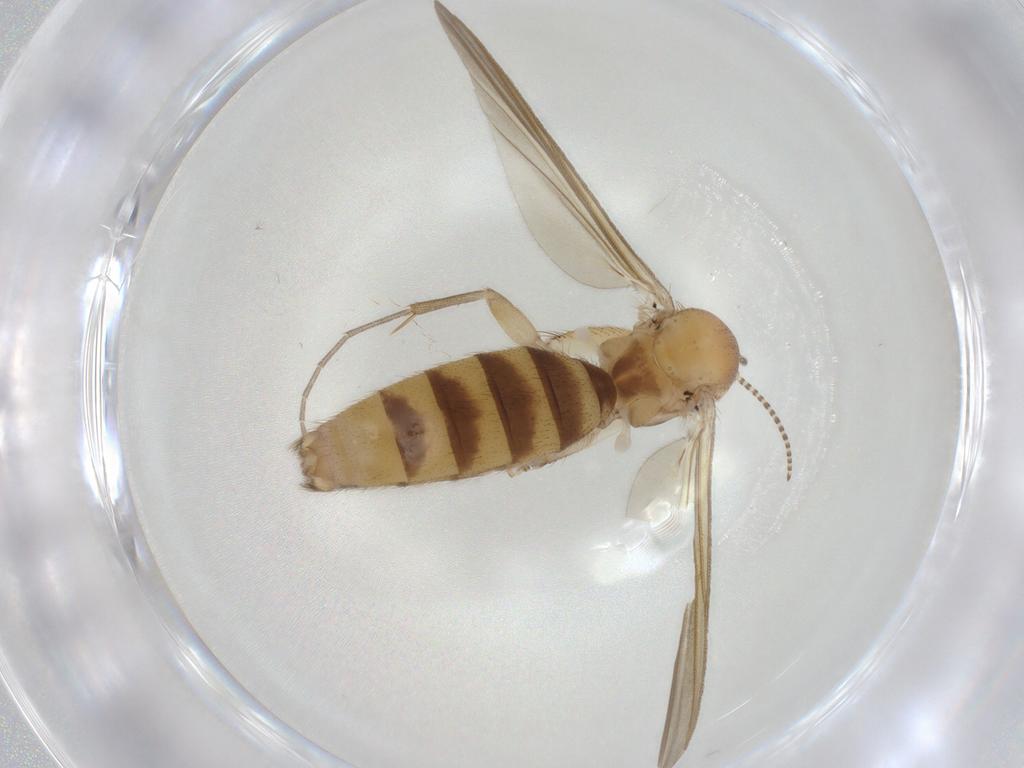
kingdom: Animalia
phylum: Arthropoda
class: Insecta
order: Diptera
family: Mycetophilidae
